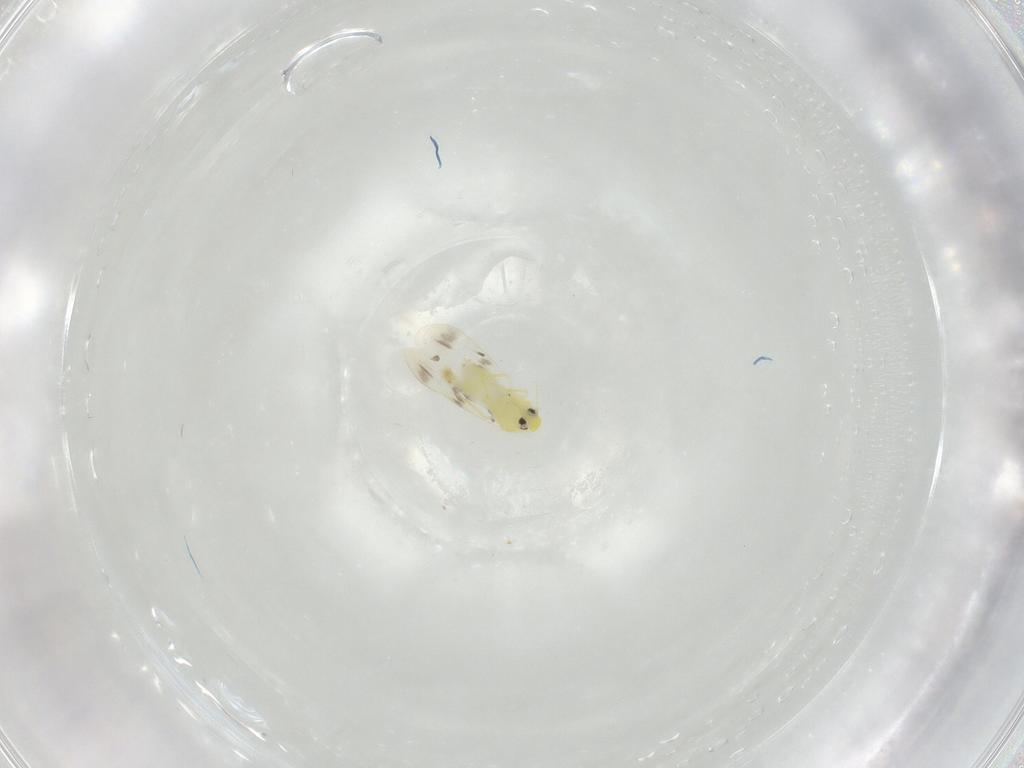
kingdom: Animalia
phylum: Arthropoda
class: Insecta
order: Hemiptera
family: Aleyrodidae
